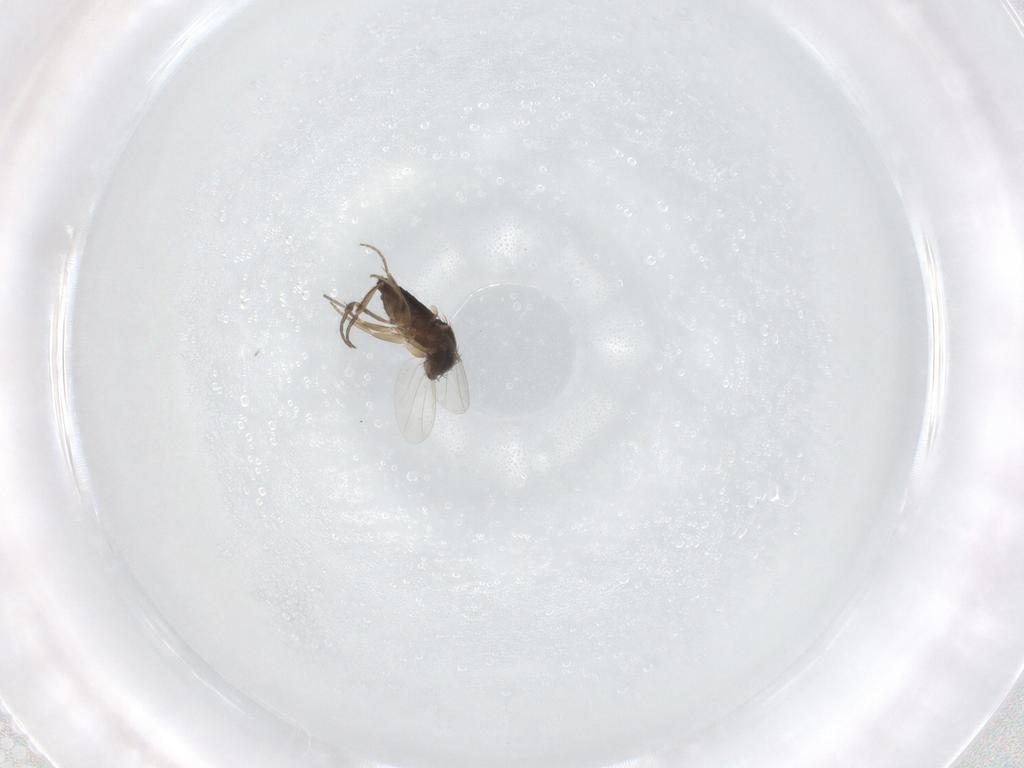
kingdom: Animalia
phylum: Arthropoda
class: Insecta
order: Diptera
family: Phoridae
